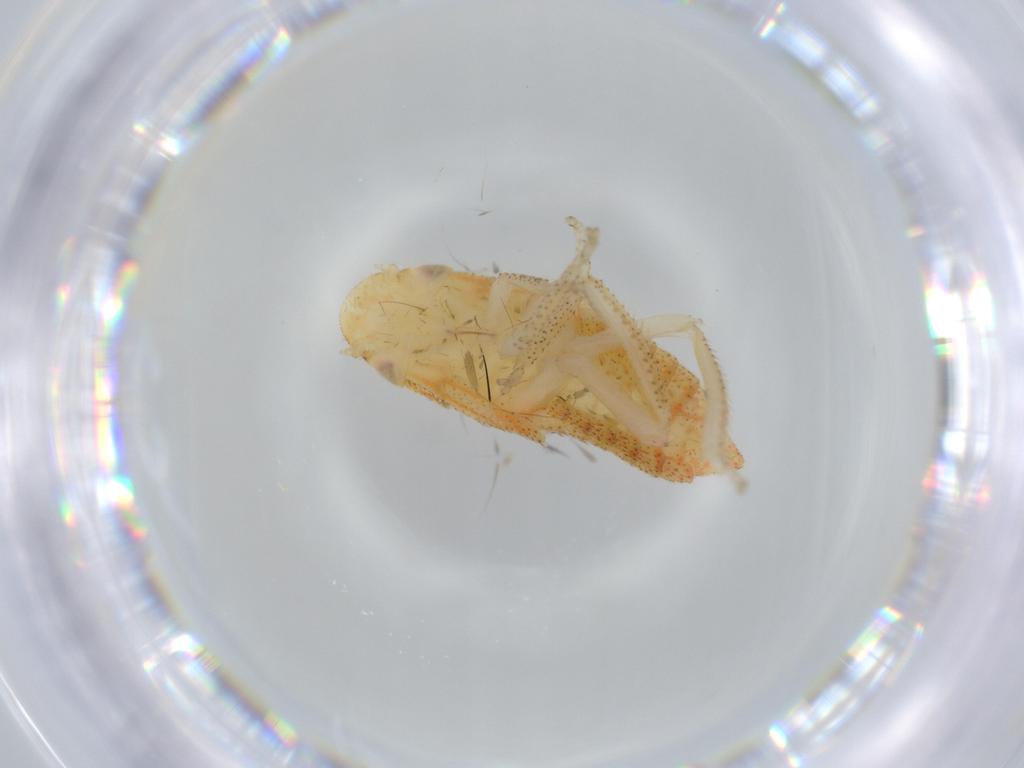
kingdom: Animalia
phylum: Arthropoda
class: Insecta
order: Hemiptera
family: Cicadellidae
